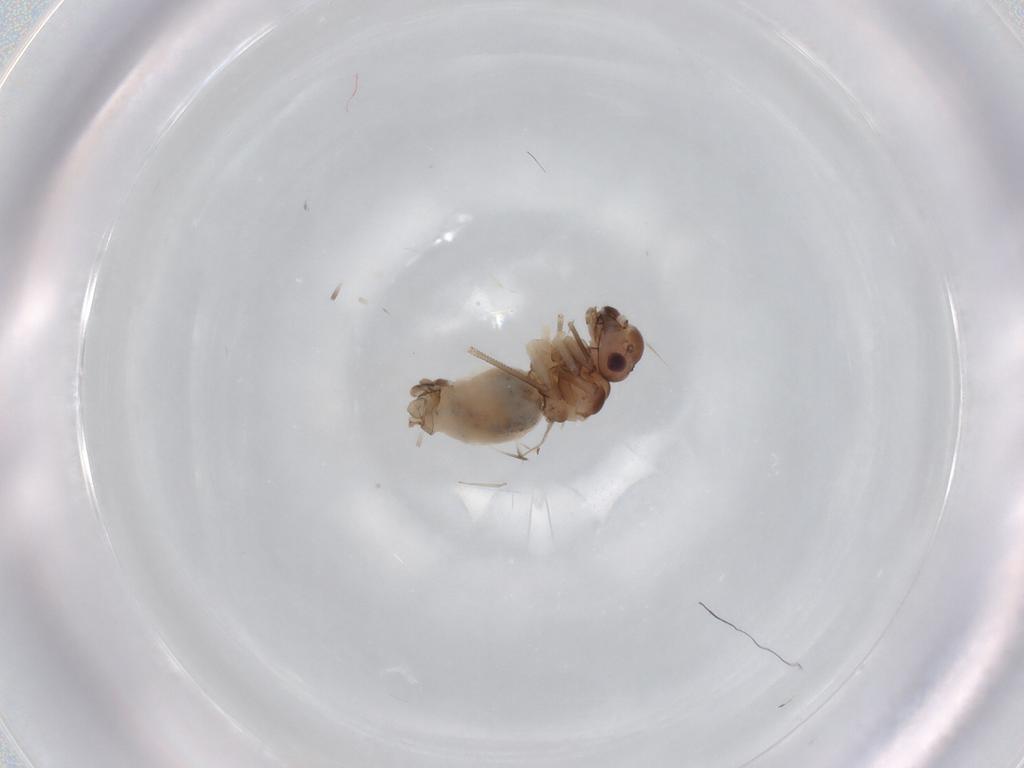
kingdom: Animalia
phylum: Arthropoda
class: Insecta
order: Psocodea
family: Peripsocidae
